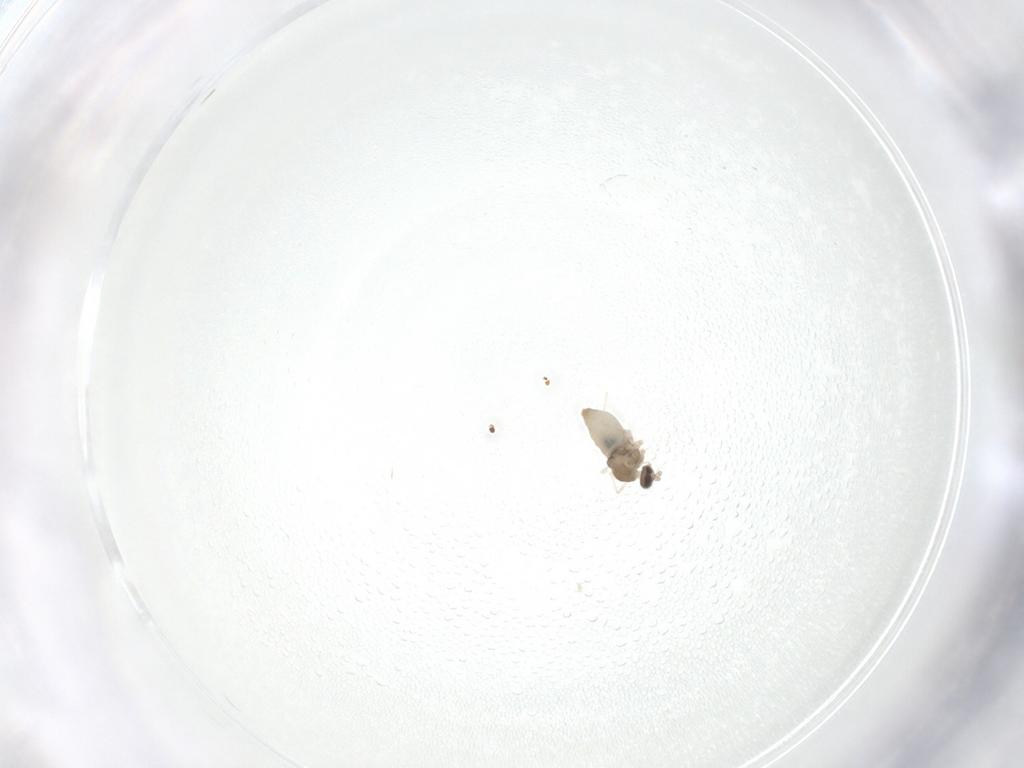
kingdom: Animalia
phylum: Arthropoda
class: Insecta
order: Diptera
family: Cecidomyiidae
